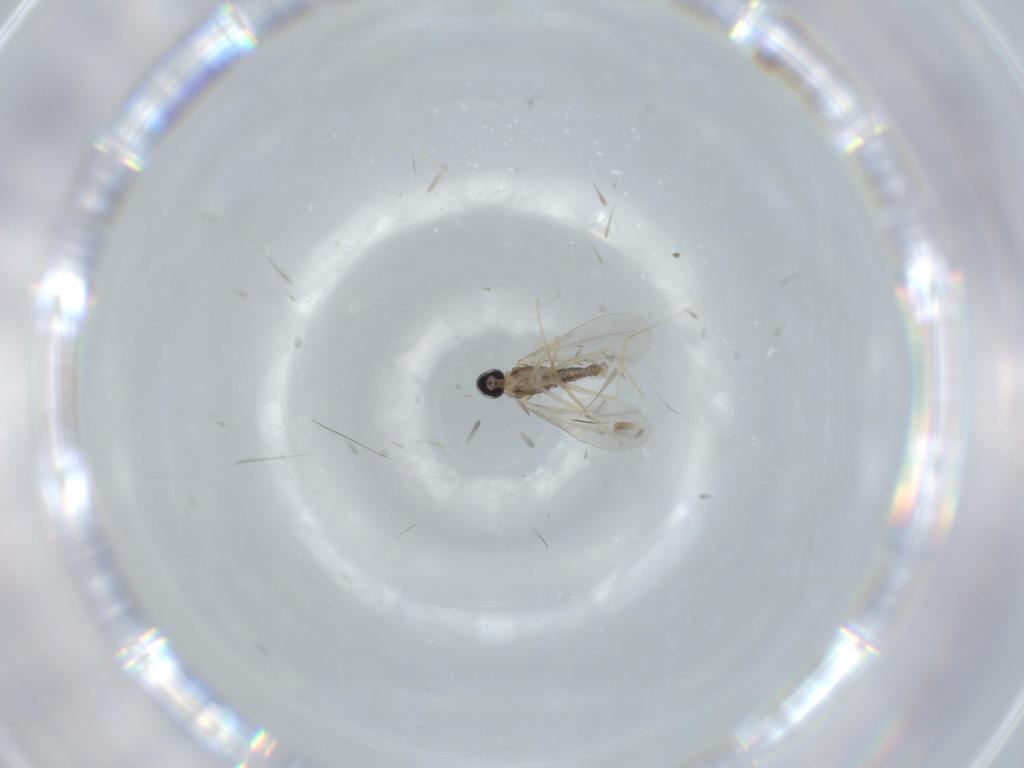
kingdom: Animalia
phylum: Arthropoda
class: Insecta
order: Diptera
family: Cecidomyiidae
